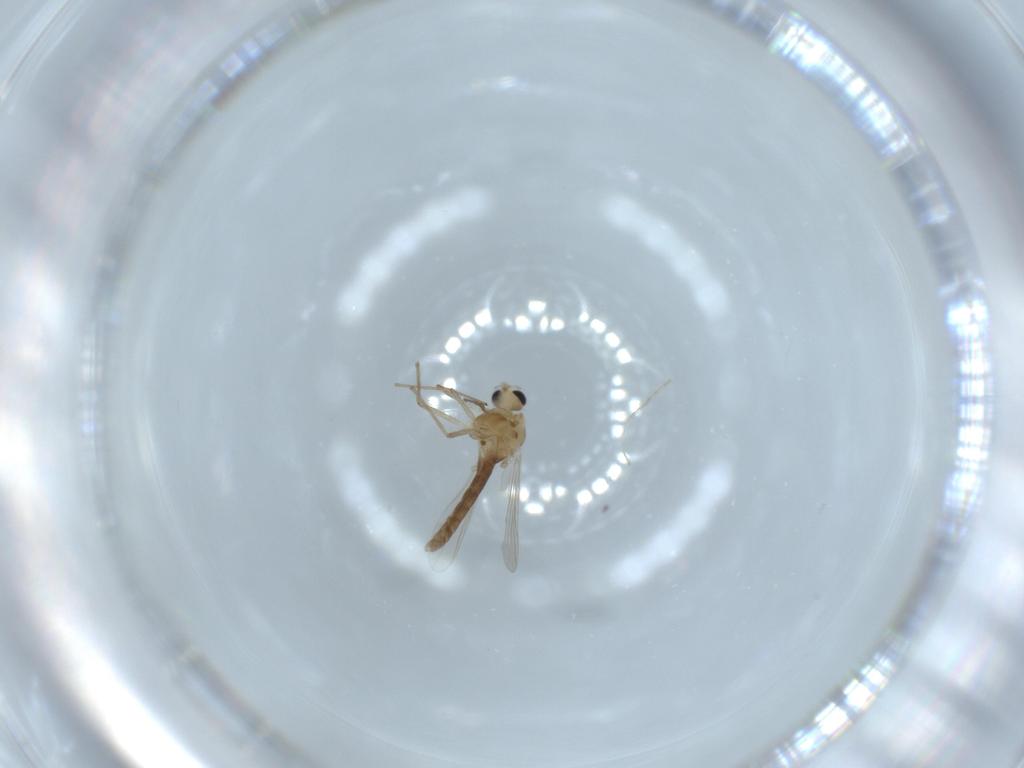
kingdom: Animalia
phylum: Arthropoda
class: Insecta
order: Diptera
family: Chironomidae
